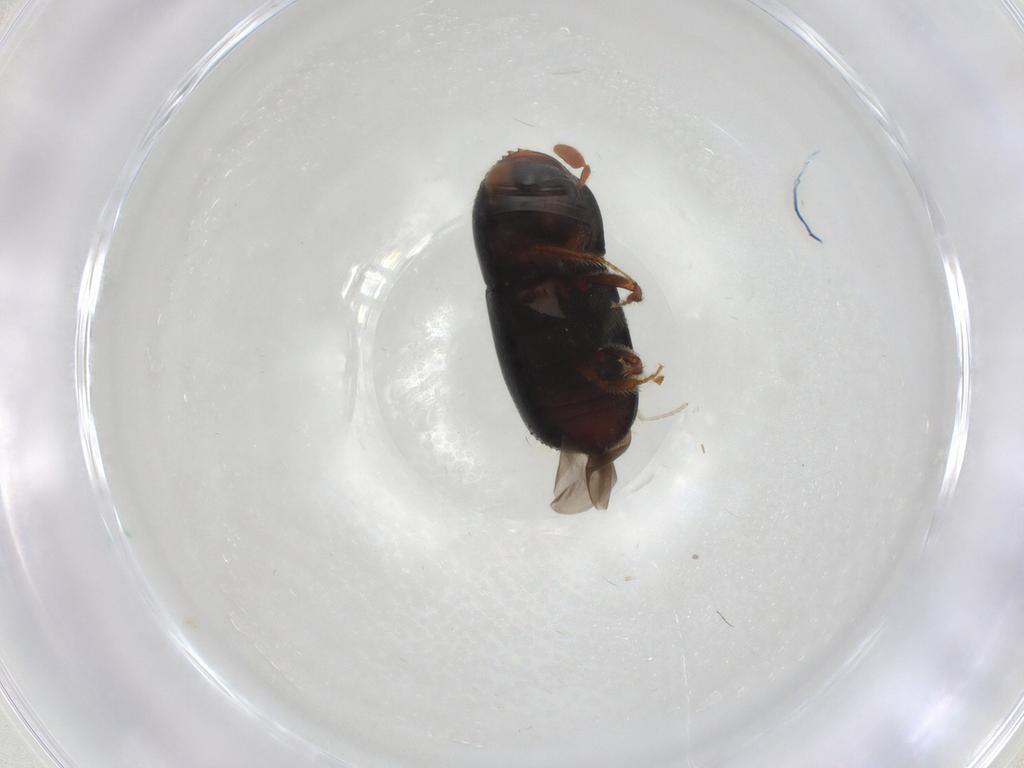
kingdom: Animalia
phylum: Arthropoda
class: Insecta
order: Coleoptera
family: Curculionidae
